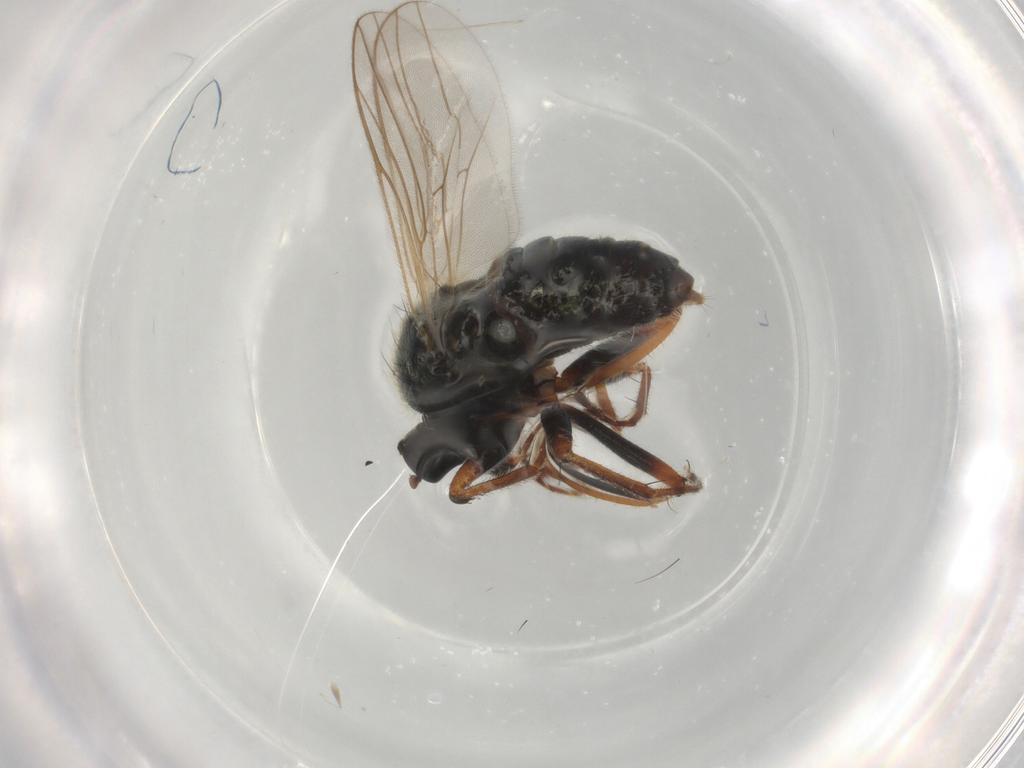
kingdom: Animalia
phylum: Arthropoda
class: Insecta
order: Diptera
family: Hybotidae
